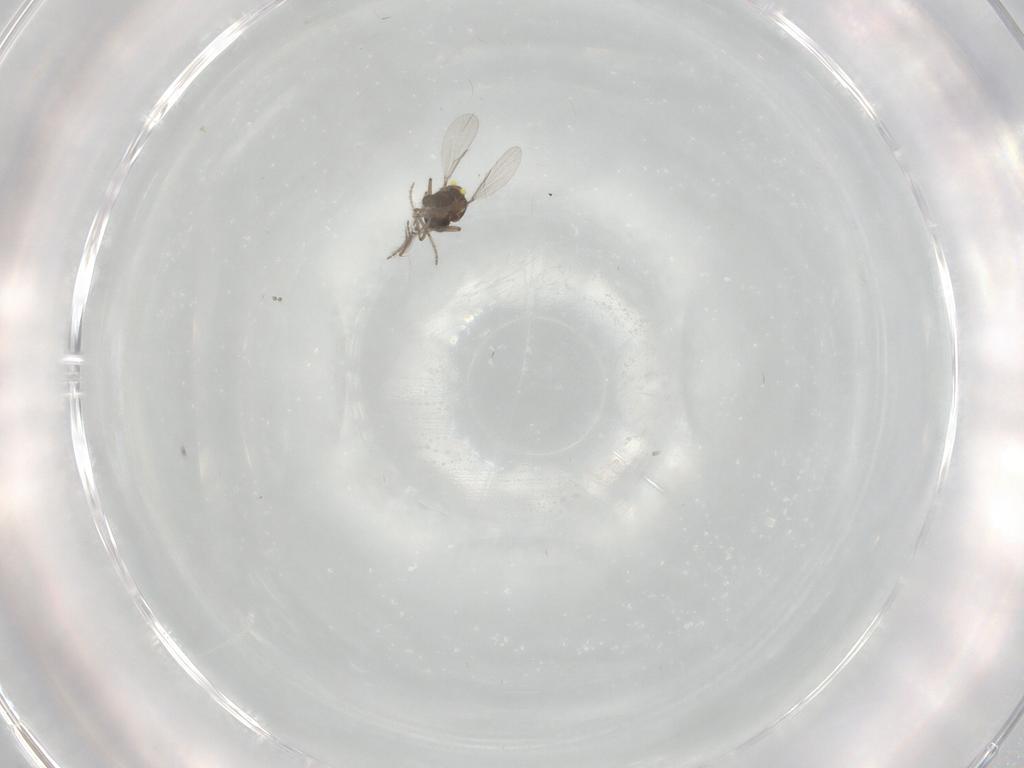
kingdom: Animalia
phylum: Arthropoda
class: Insecta
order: Diptera
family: Ceratopogonidae
